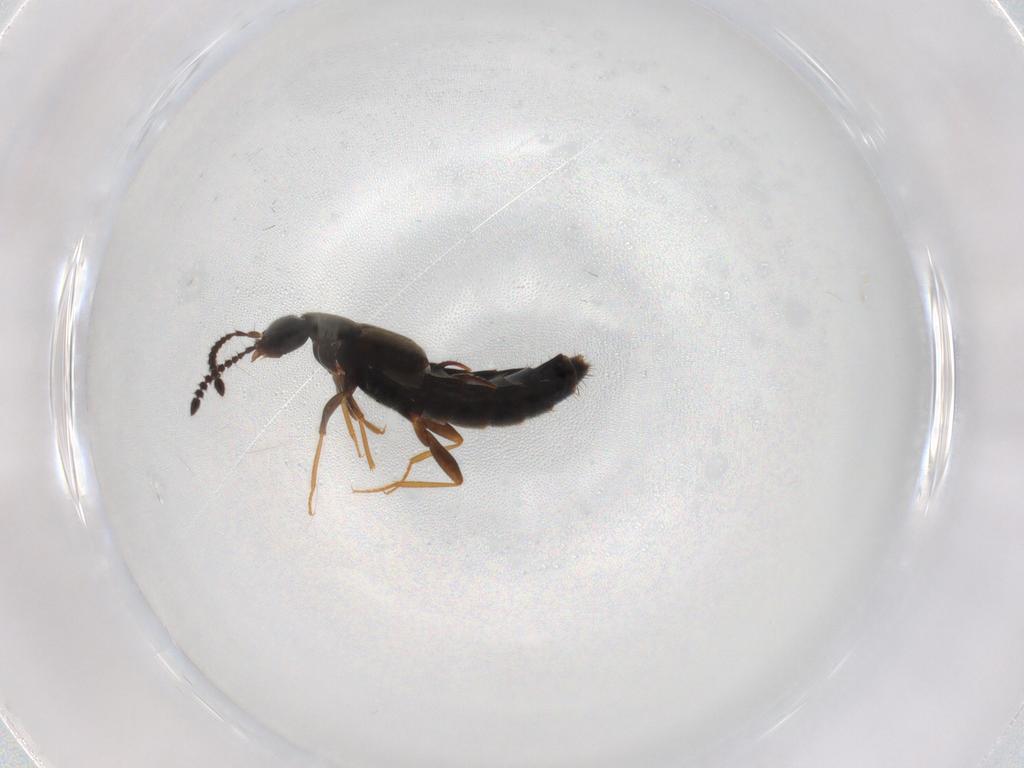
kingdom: Animalia
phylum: Arthropoda
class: Insecta
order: Coleoptera
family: Staphylinidae
